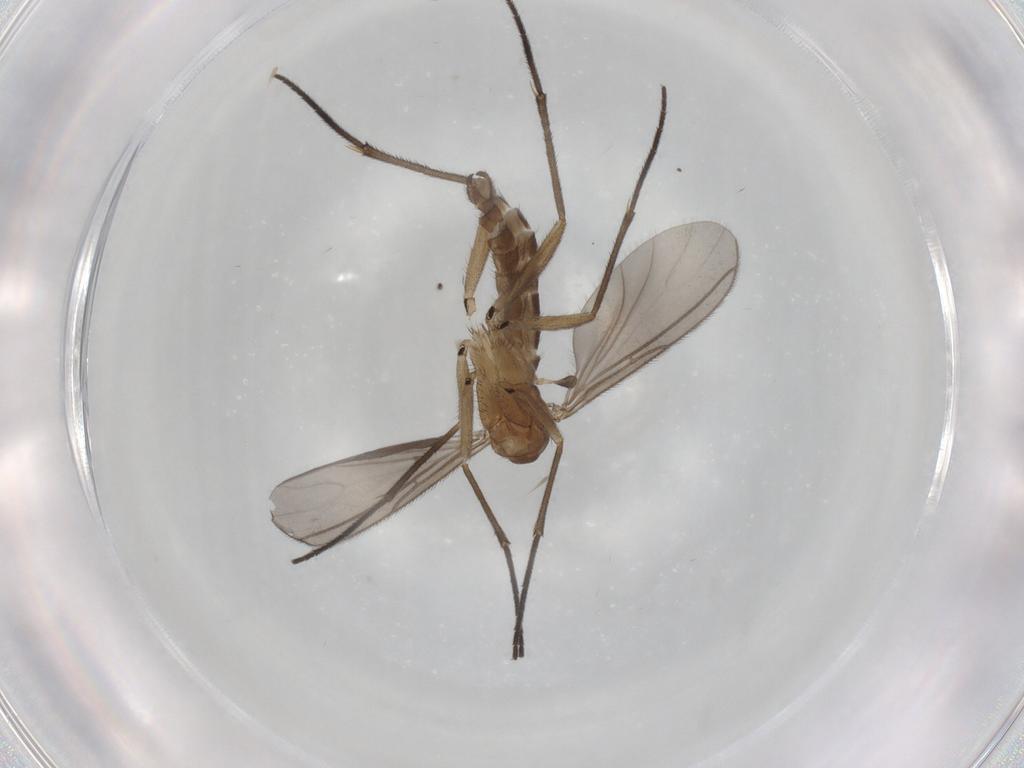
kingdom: Animalia
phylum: Arthropoda
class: Insecta
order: Diptera
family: Sciaridae
